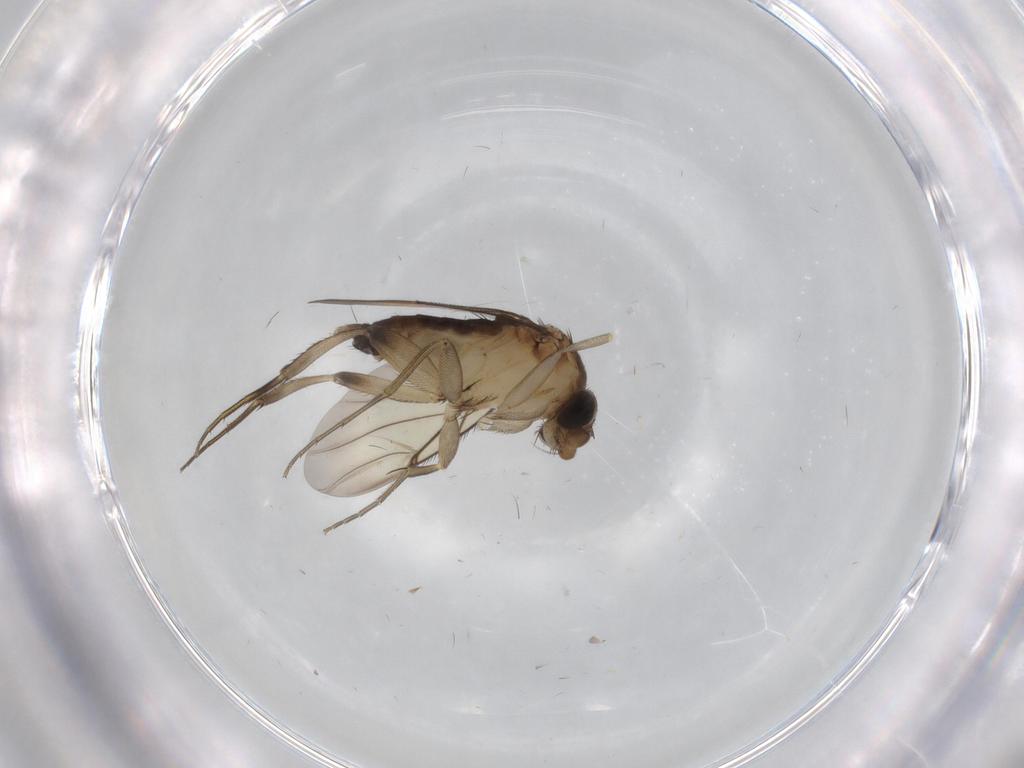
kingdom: Animalia
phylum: Arthropoda
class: Insecta
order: Diptera
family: Phoridae
